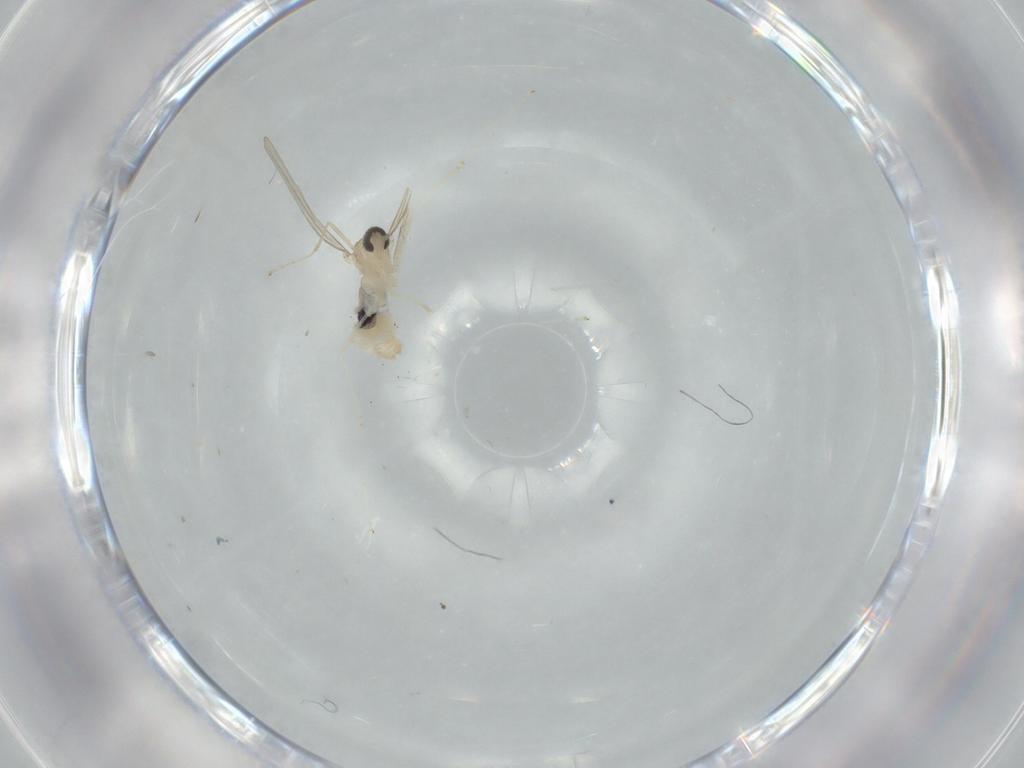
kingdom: Animalia
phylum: Arthropoda
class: Insecta
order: Diptera
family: Cecidomyiidae
